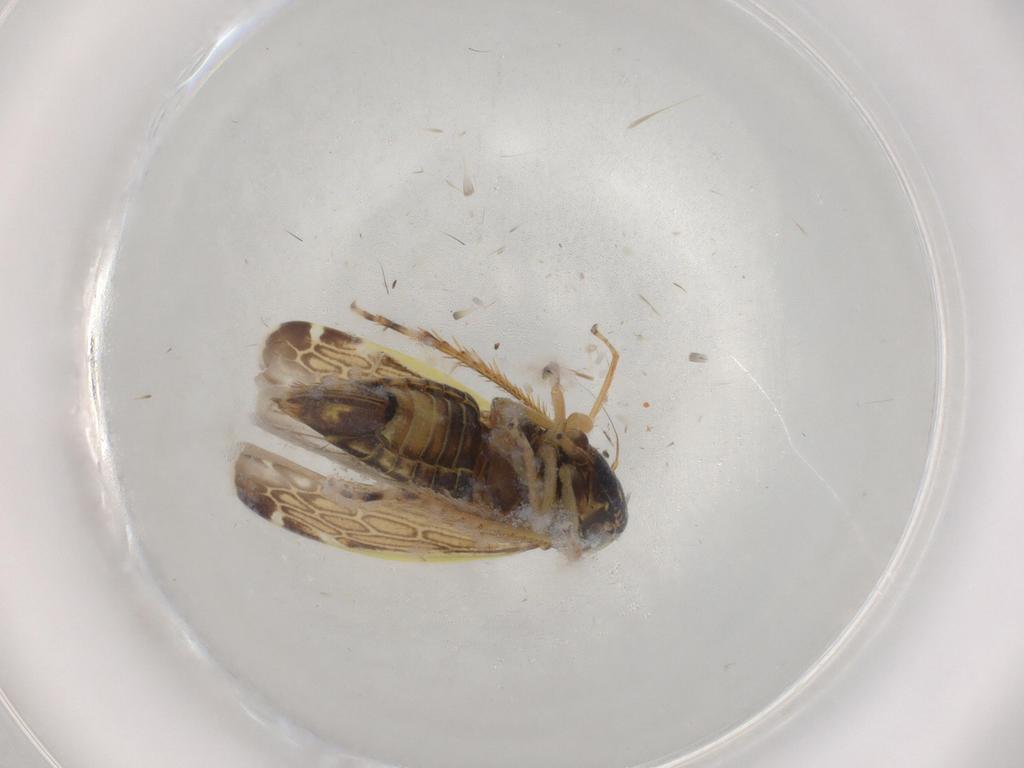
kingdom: Animalia
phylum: Arthropoda
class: Insecta
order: Hemiptera
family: Cicadellidae
